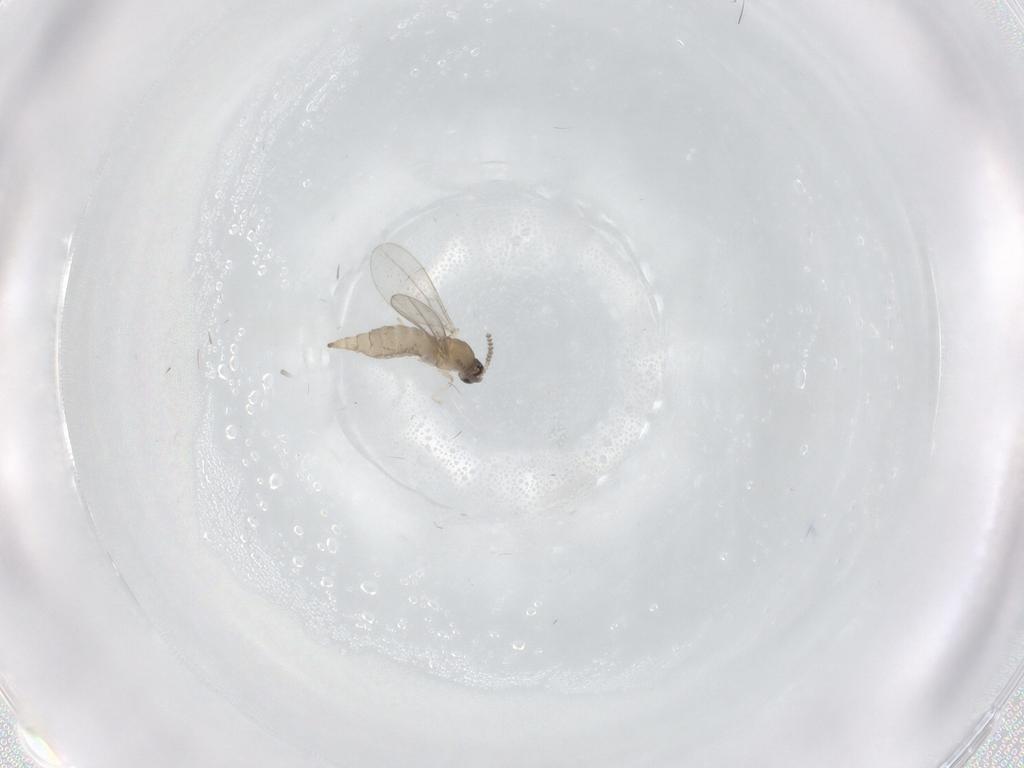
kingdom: Animalia
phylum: Arthropoda
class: Insecta
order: Diptera
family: Cecidomyiidae
